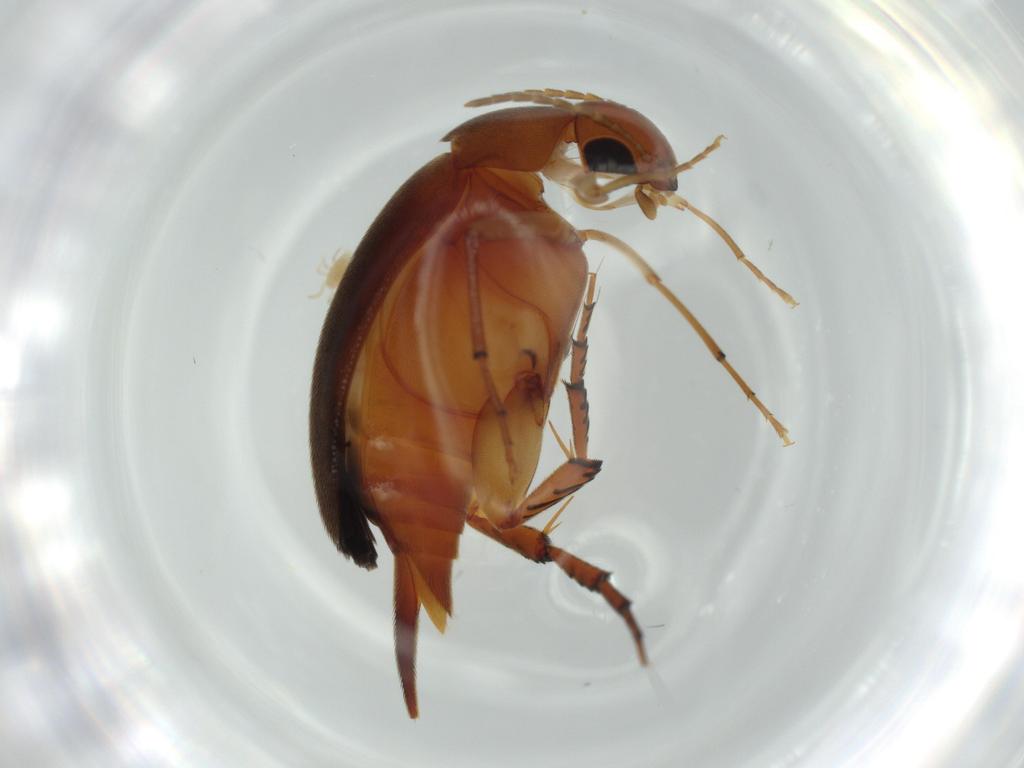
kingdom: Animalia
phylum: Arthropoda
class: Insecta
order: Coleoptera
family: Mordellidae
